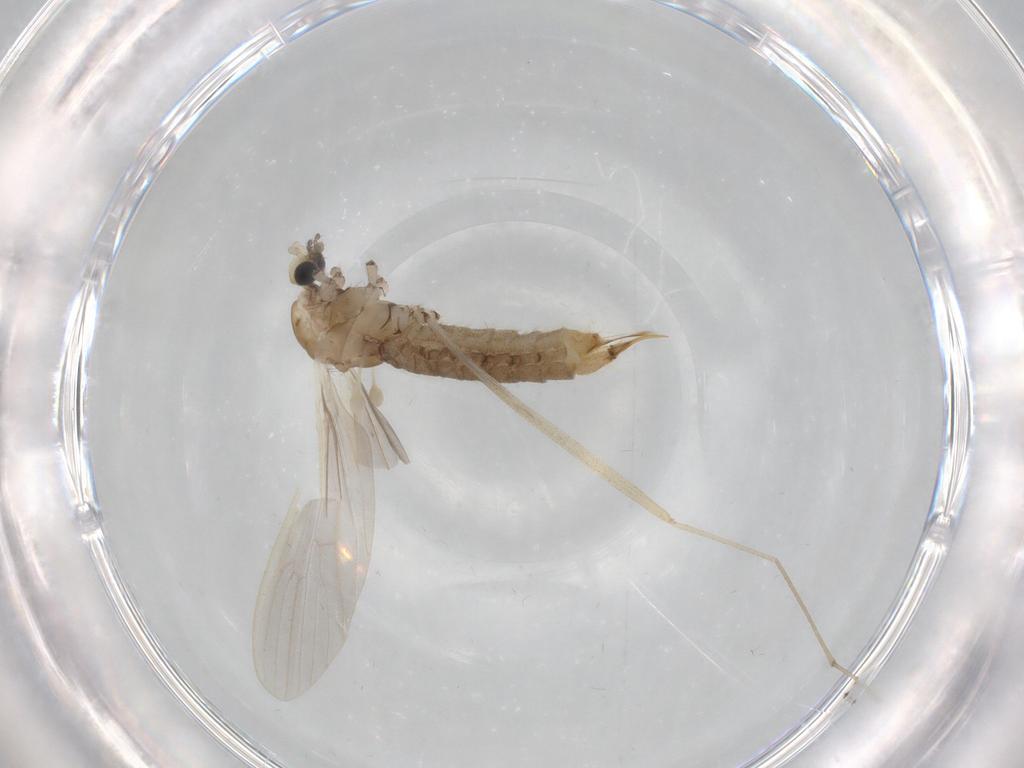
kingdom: Animalia
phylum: Arthropoda
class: Insecta
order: Diptera
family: Limoniidae
